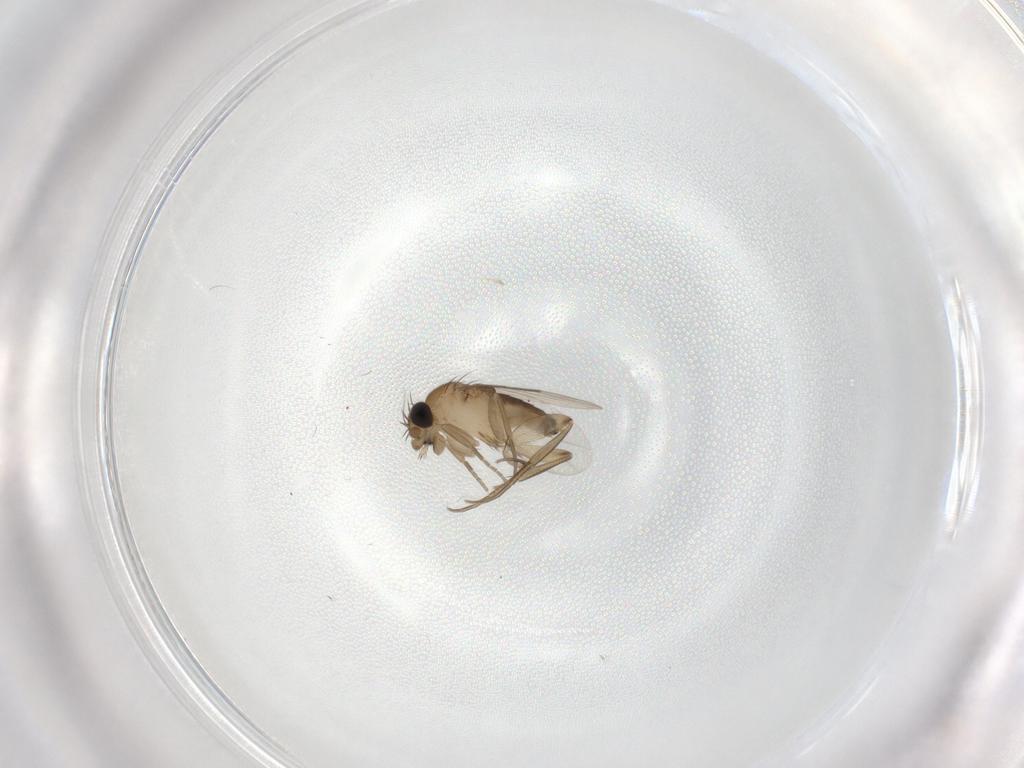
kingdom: Animalia
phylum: Arthropoda
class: Insecta
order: Diptera
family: Phoridae
